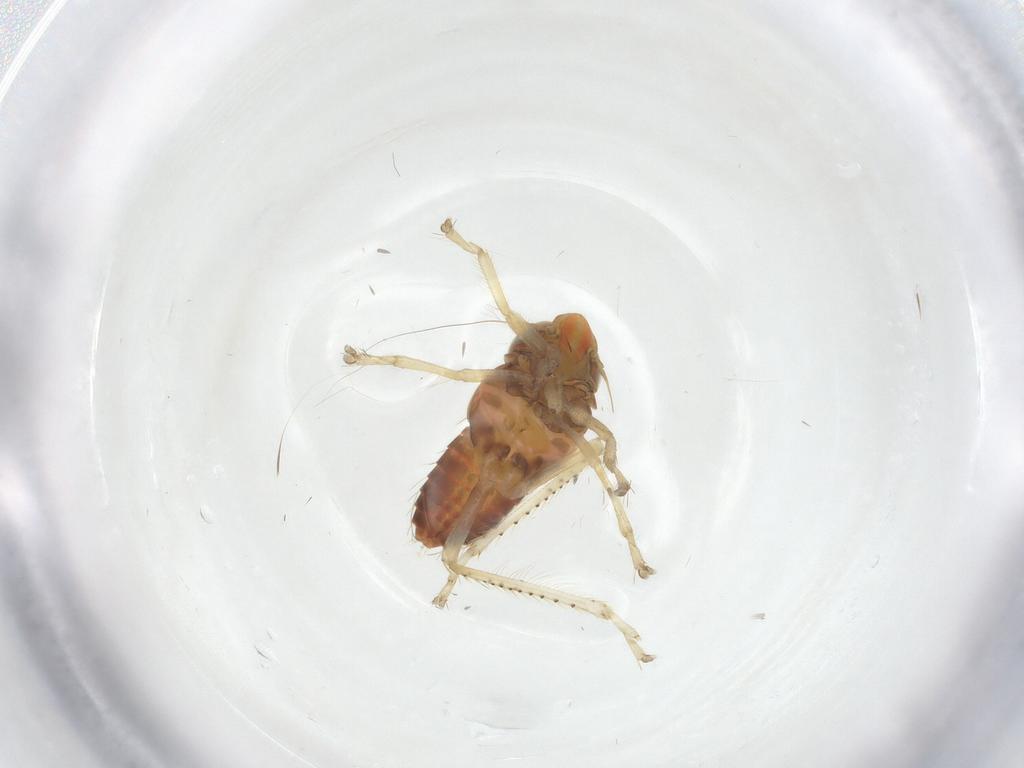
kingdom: Animalia
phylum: Arthropoda
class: Insecta
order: Hemiptera
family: Cicadellidae
